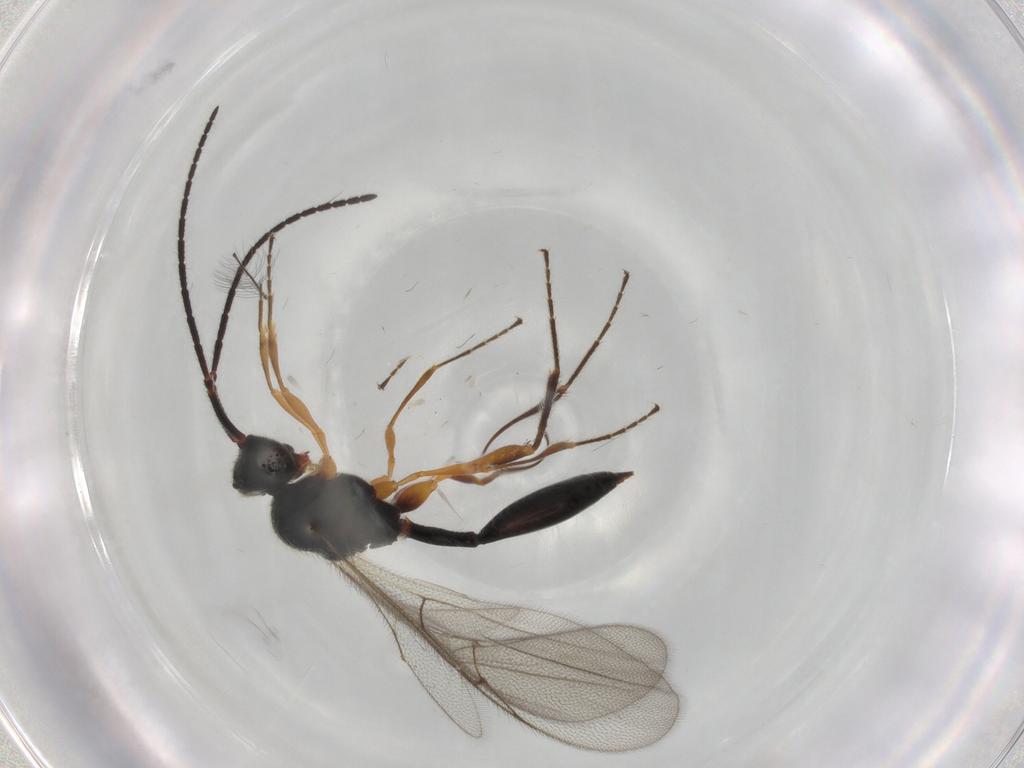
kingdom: Animalia
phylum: Arthropoda
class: Insecta
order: Hymenoptera
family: Diapriidae
